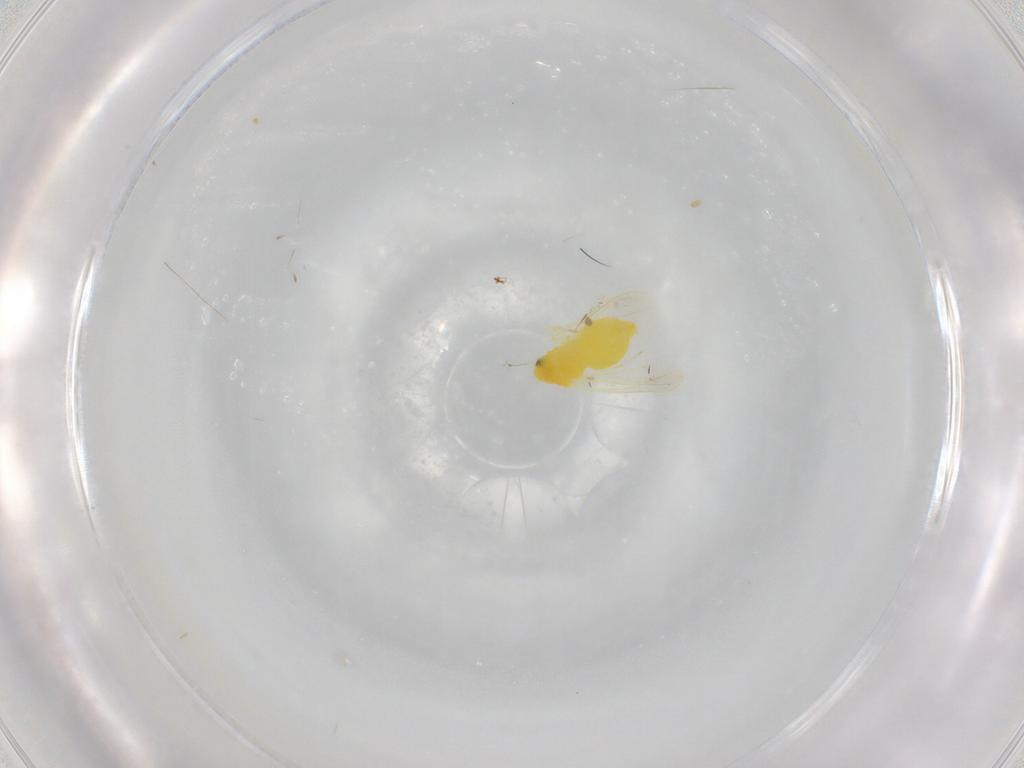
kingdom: Animalia
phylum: Arthropoda
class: Insecta
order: Hemiptera
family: Aleyrodidae
